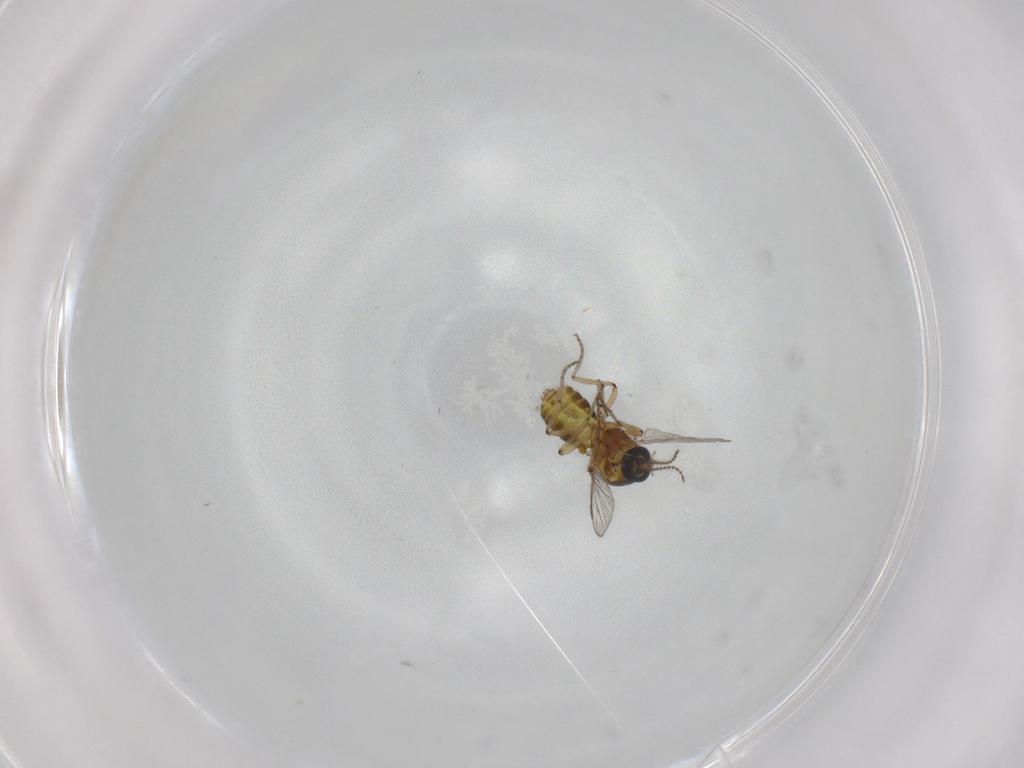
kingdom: Animalia
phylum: Arthropoda
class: Insecta
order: Diptera
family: Ceratopogonidae
